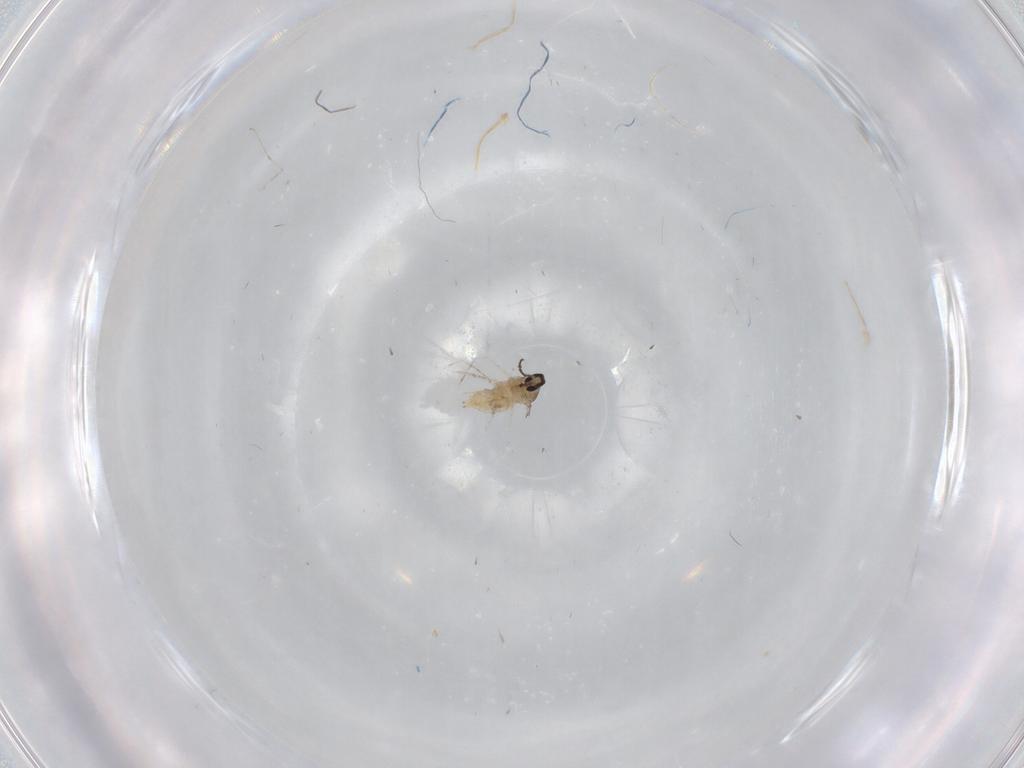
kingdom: Animalia
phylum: Arthropoda
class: Insecta
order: Diptera
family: Cecidomyiidae
